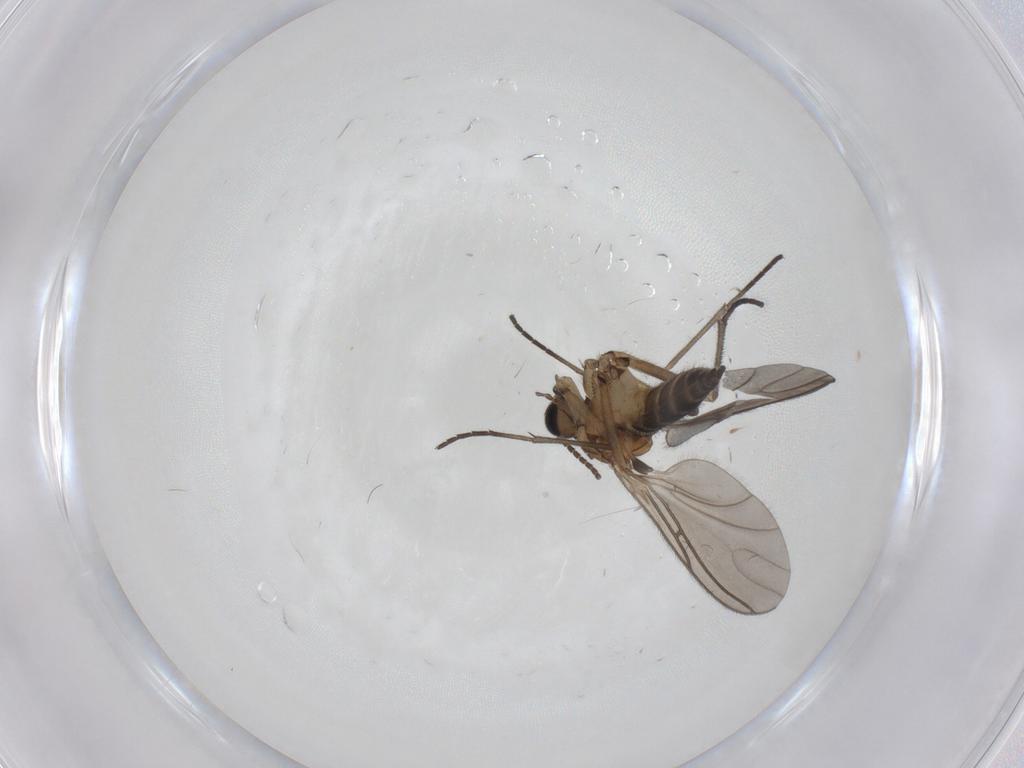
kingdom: Animalia
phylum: Arthropoda
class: Insecta
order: Diptera
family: Sciaridae
